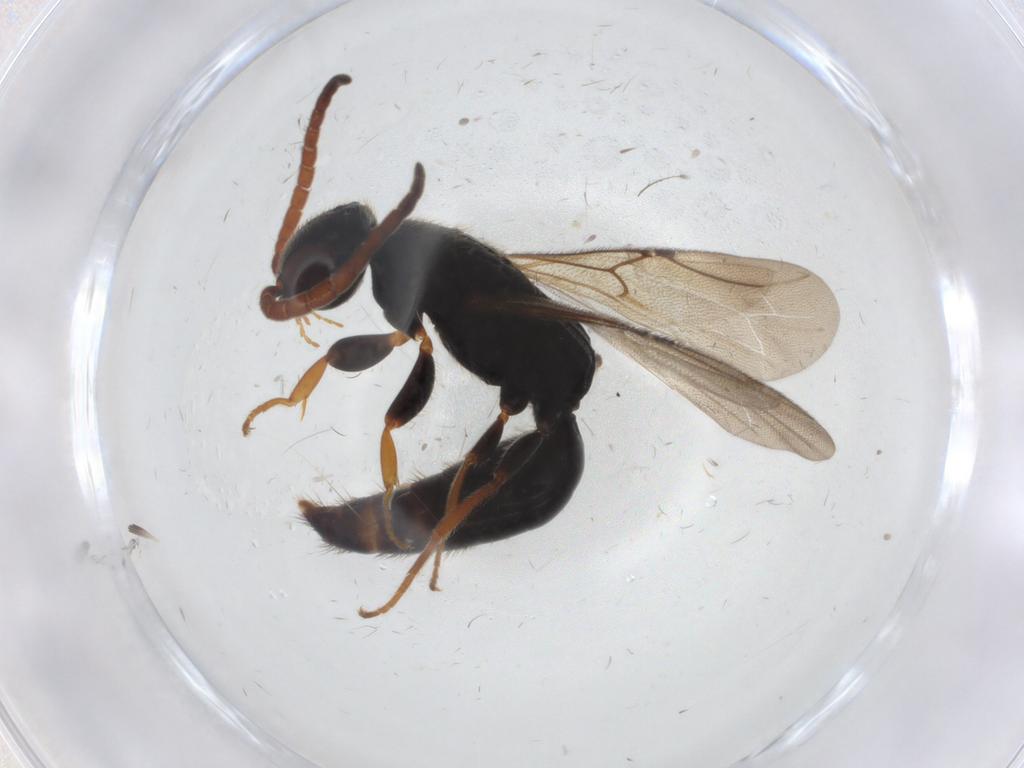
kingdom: Animalia
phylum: Arthropoda
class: Insecta
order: Hymenoptera
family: Bethylidae
